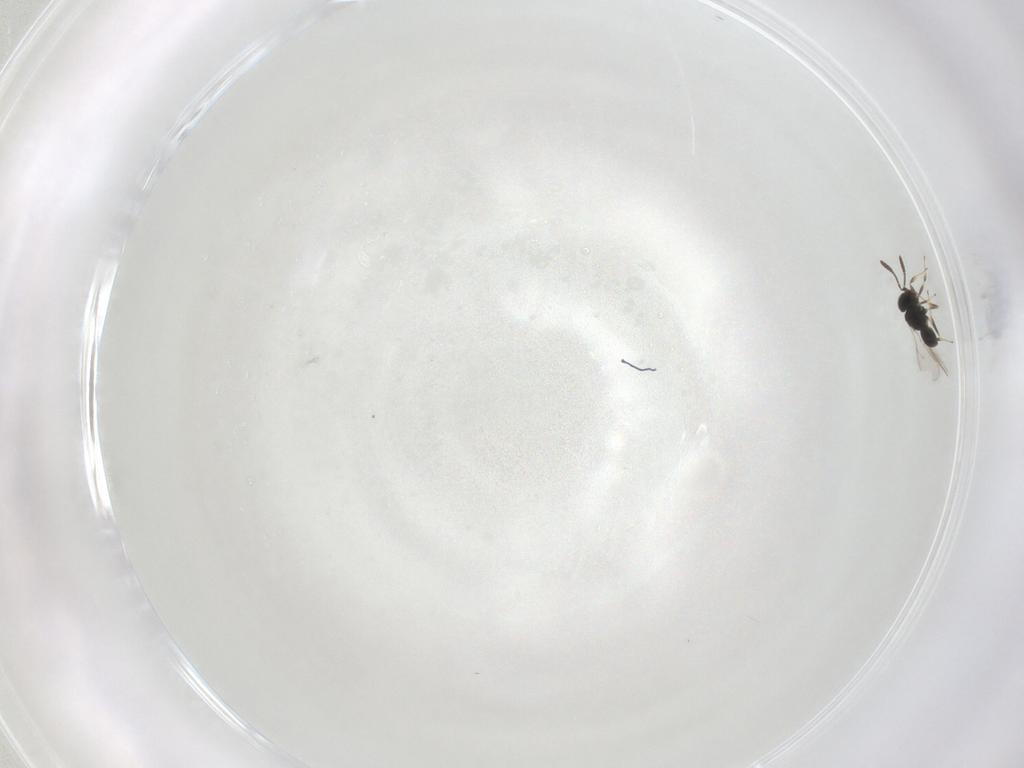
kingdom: Animalia
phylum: Arthropoda
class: Insecta
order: Hymenoptera
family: Scelionidae
